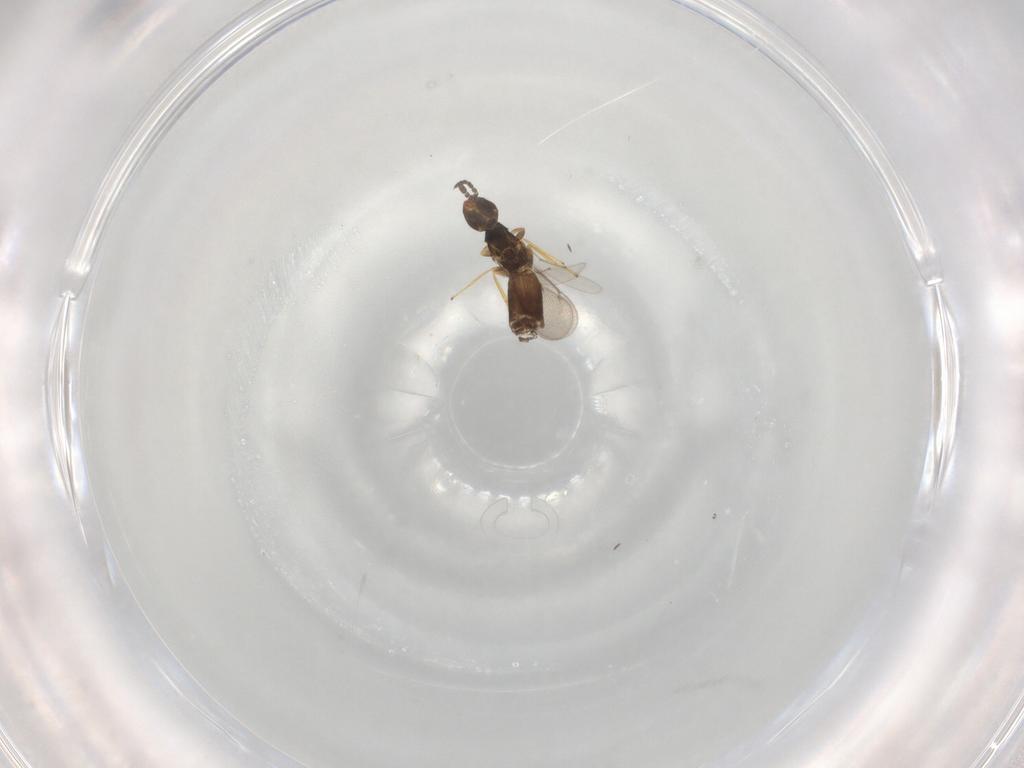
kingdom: Animalia
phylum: Arthropoda
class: Insecta
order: Hymenoptera
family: Eulophidae
